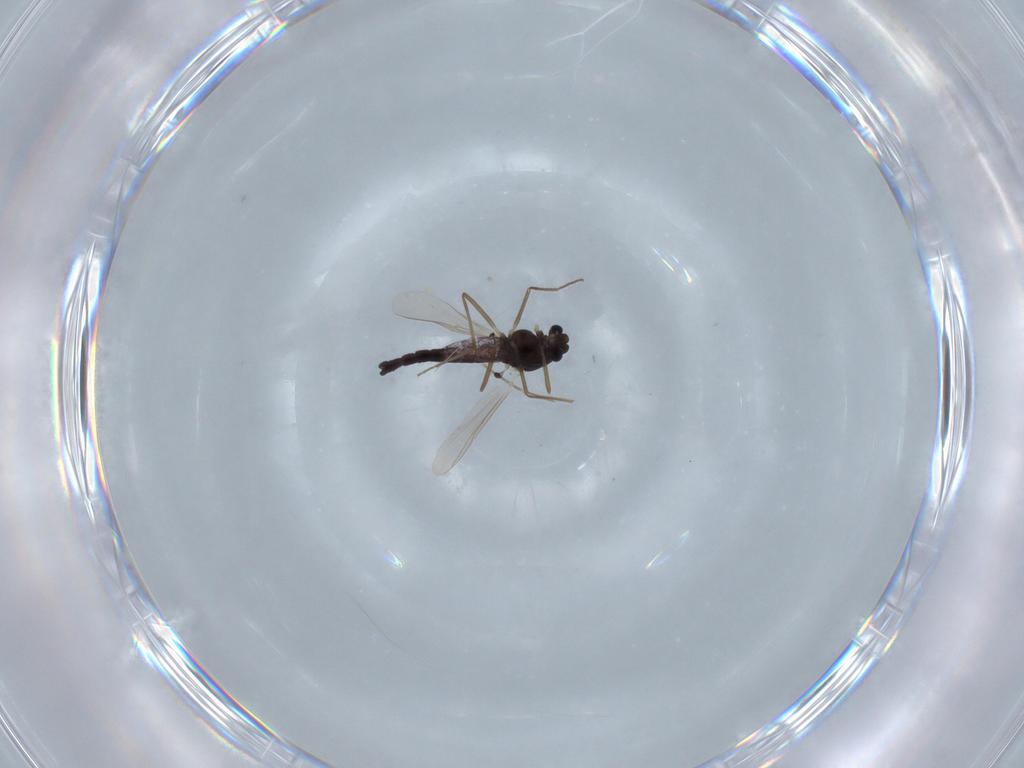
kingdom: Animalia
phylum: Arthropoda
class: Insecta
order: Diptera
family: Chironomidae
